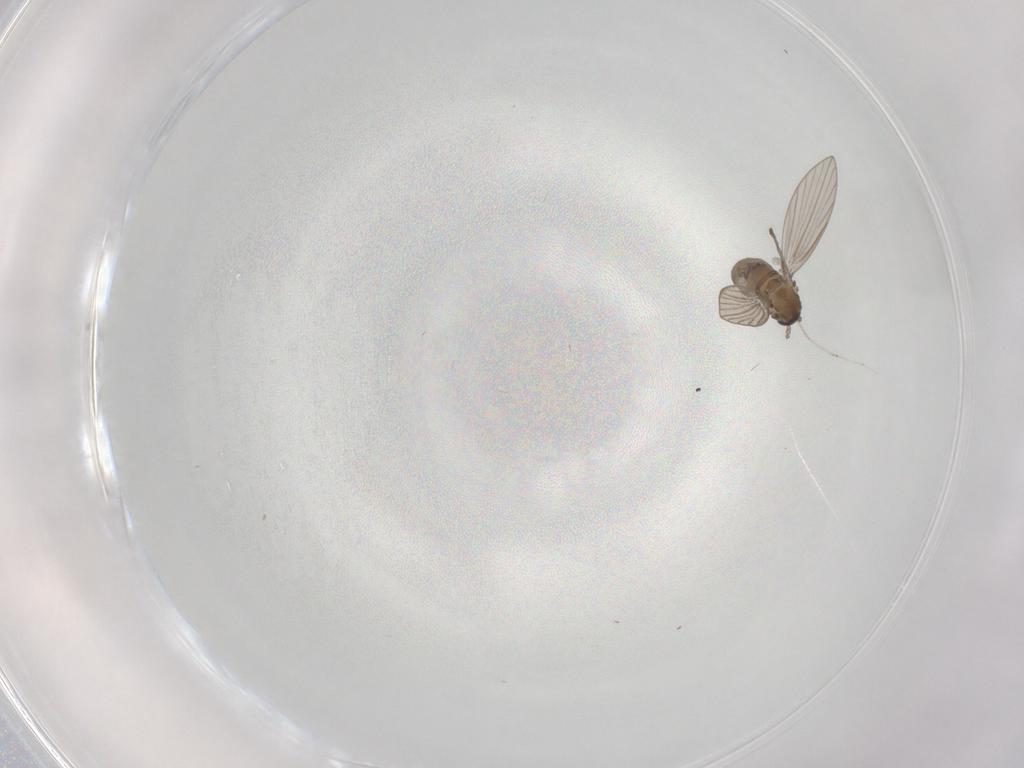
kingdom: Animalia
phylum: Arthropoda
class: Insecta
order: Diptera
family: Psychodidae
